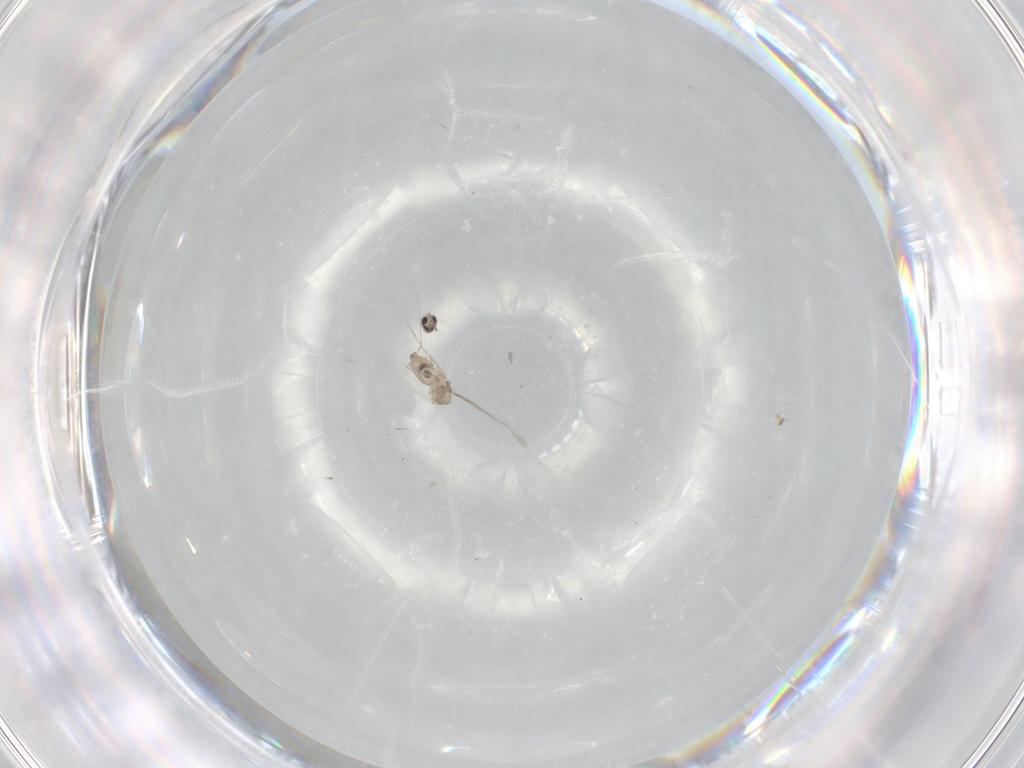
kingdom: Animalia
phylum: Arthropoda
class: Insecta
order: Diptera
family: Cecidomyiidae
